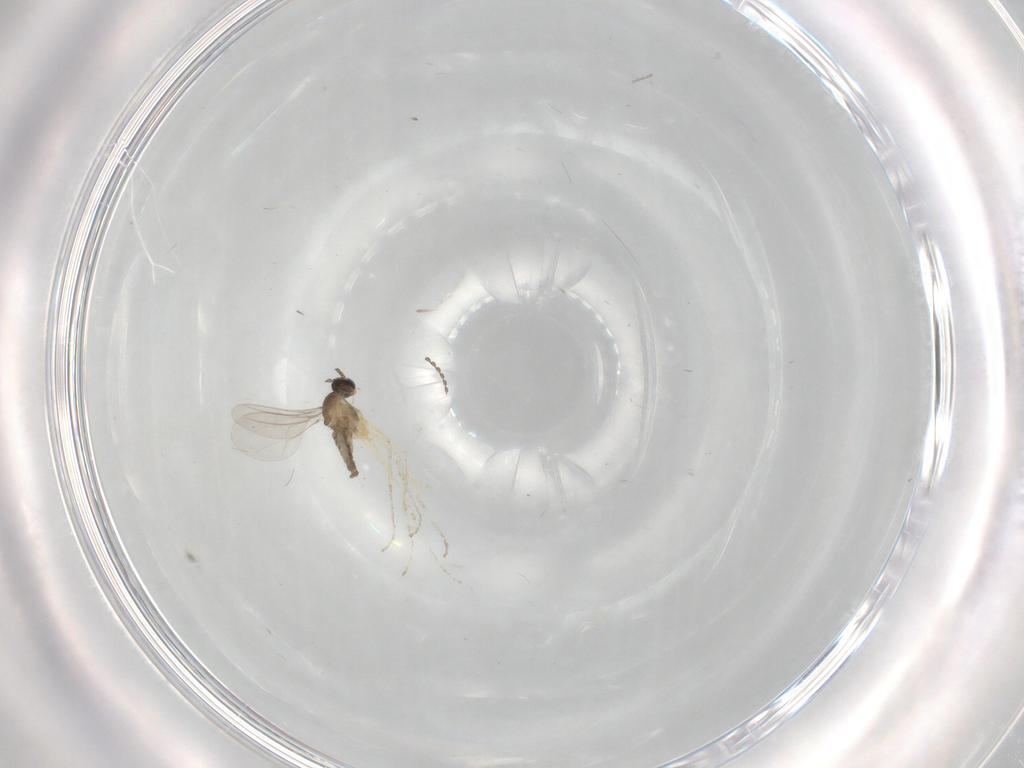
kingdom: Animalia
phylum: Arthropoda
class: Insecta
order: Diptera
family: Cecidomyiidae
